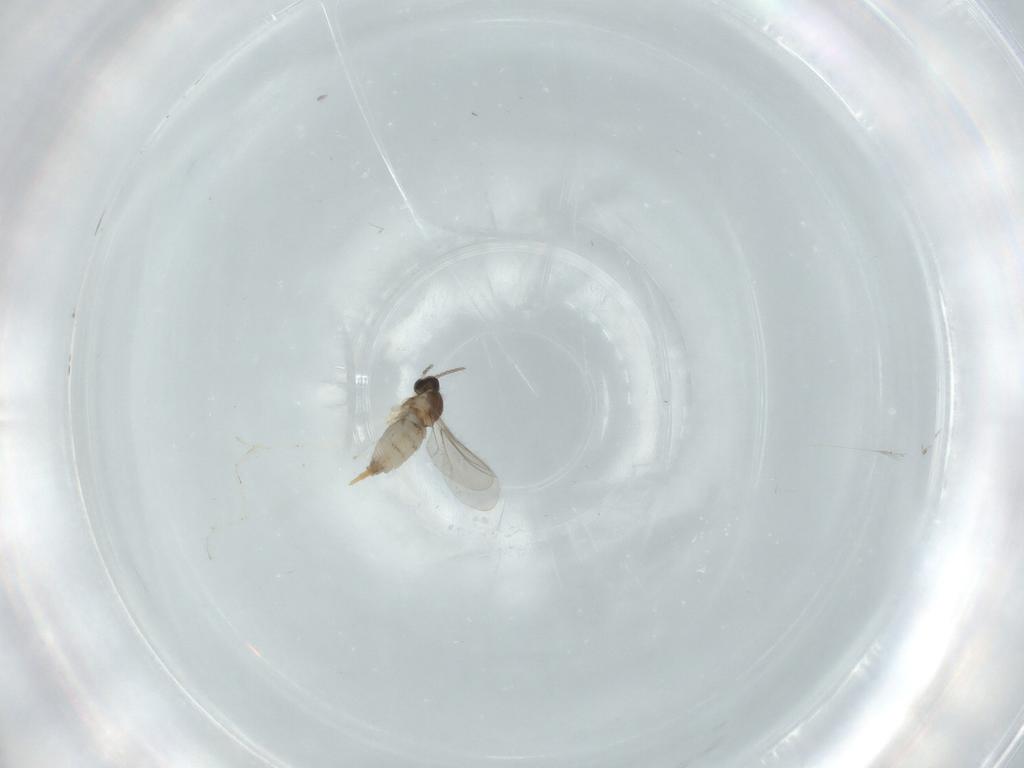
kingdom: Animalia
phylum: Arthropoda
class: Insecta
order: Diptera
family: Cecidomyiidae
